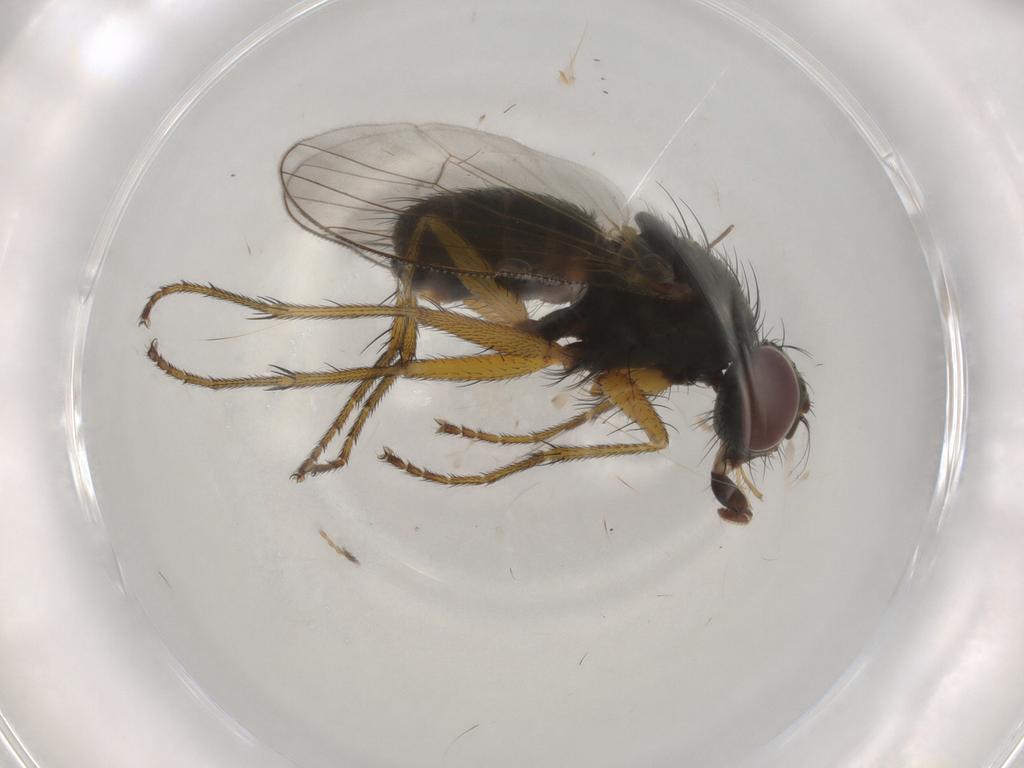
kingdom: Animalia
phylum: Arthropoda
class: Insecta
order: Diptera
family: Muscidae
